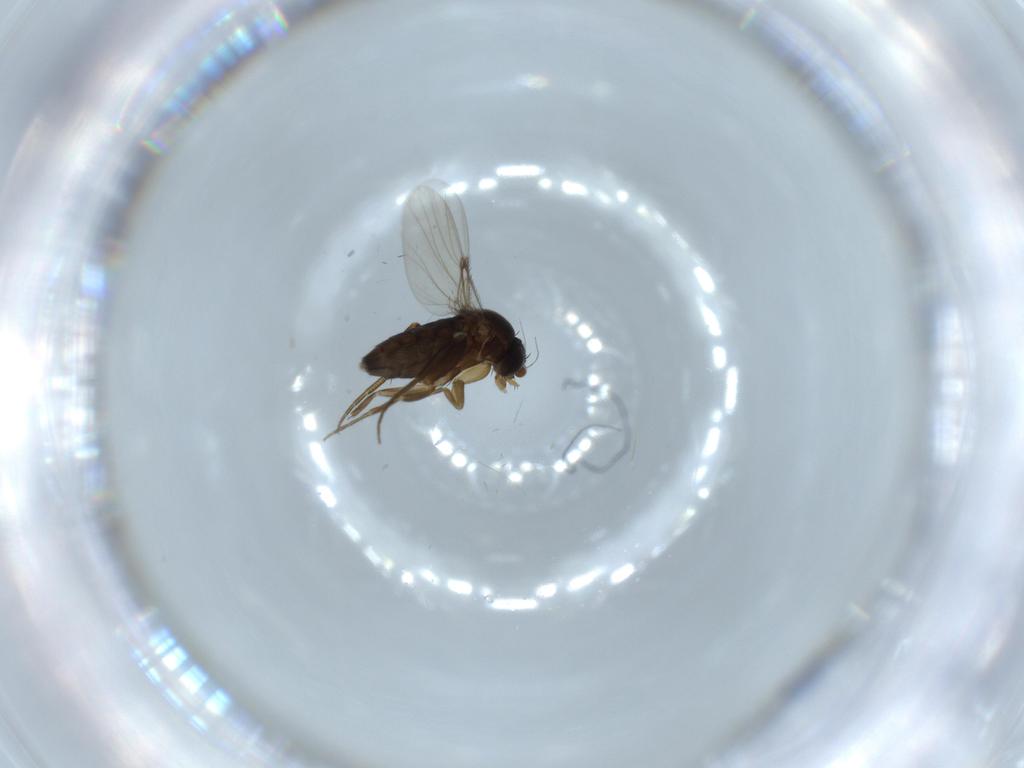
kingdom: Animalia
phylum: Arthropoda
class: Insecta
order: Diptera
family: Phoridae
